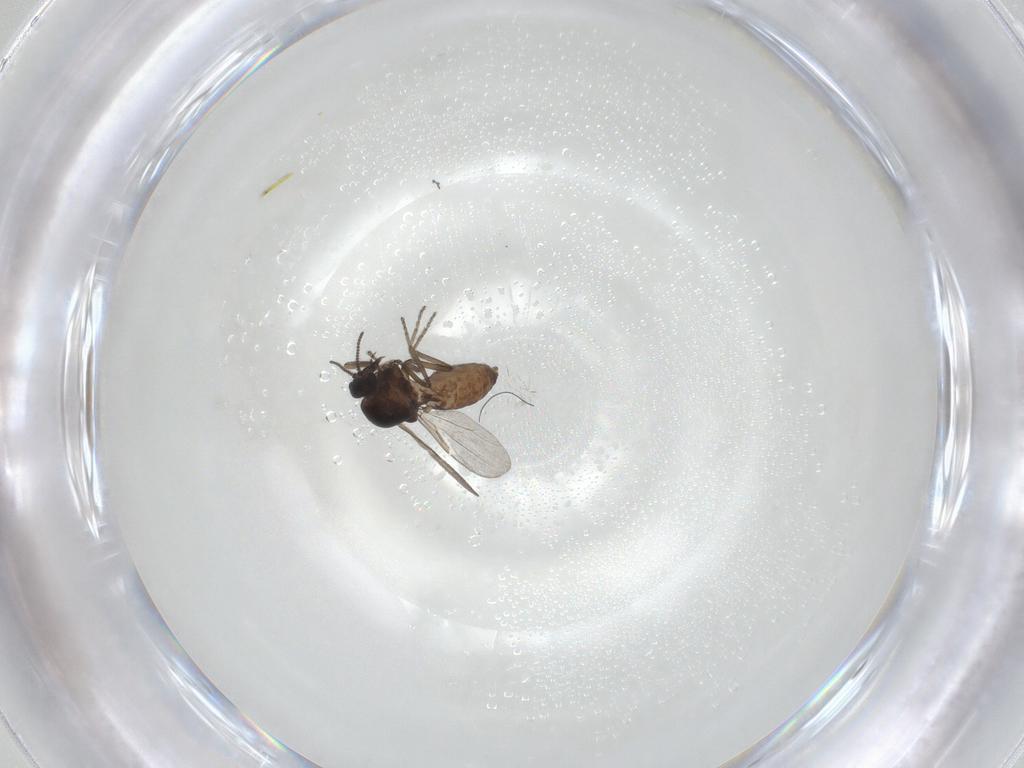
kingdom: Animalia
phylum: Arthropoda
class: Insecta
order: Diptera
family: Ceratopogonidae
